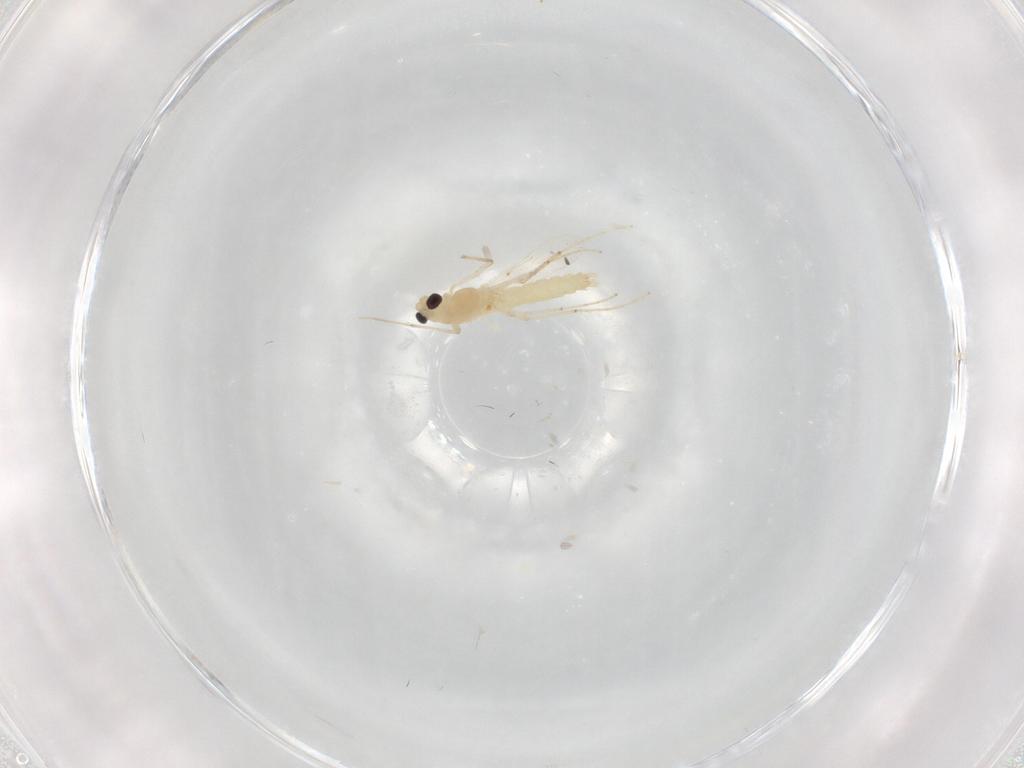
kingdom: Animalia
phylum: Arthropoda
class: Insecta
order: Diptera
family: Chironomidae
